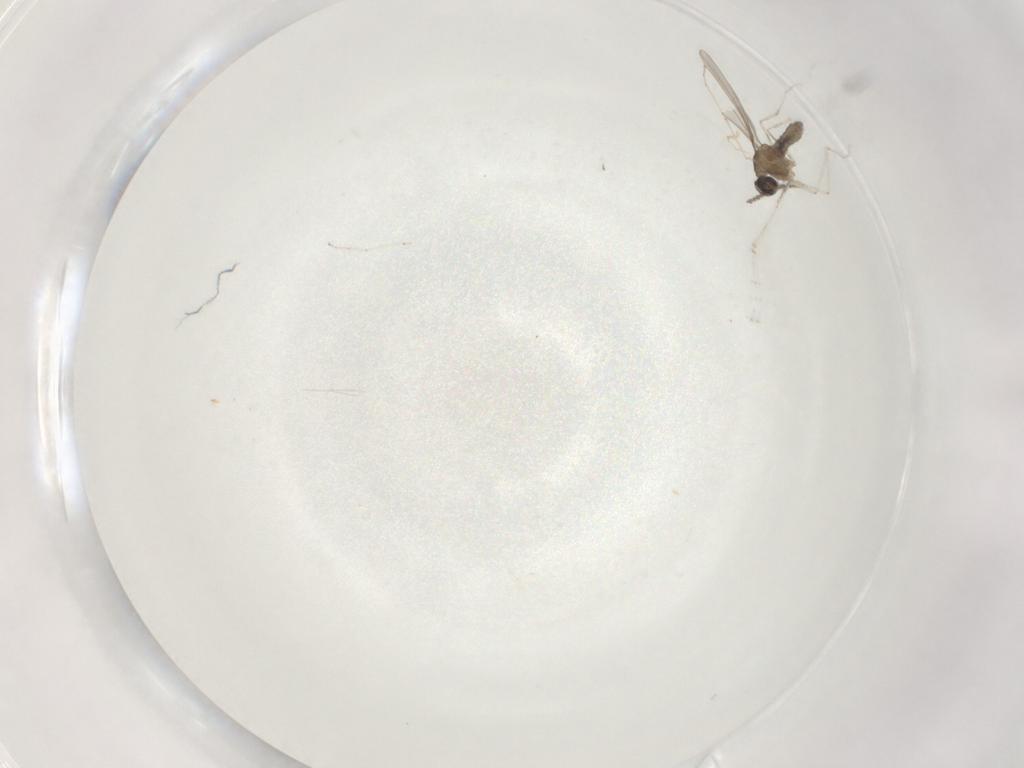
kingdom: Animalia
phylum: Arthropoda
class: Insecta
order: Diptera
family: Cecidomyiidae
